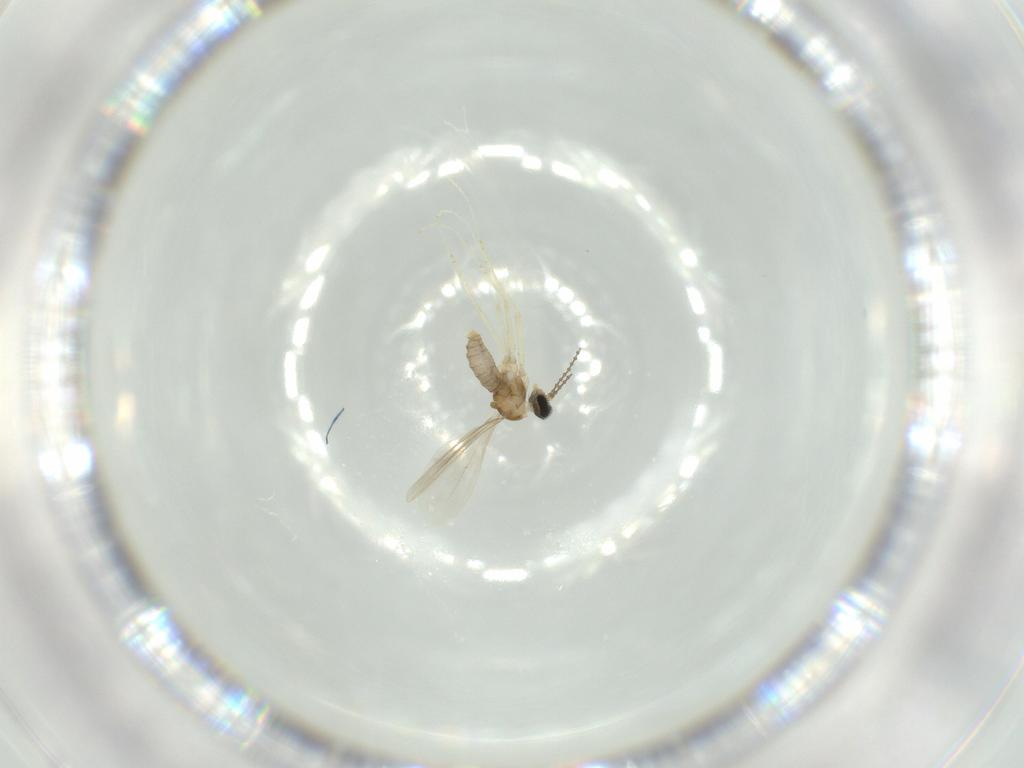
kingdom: Animalia
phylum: Arthropoda
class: Insecta
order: Diptera
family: Cecidomyiidae
